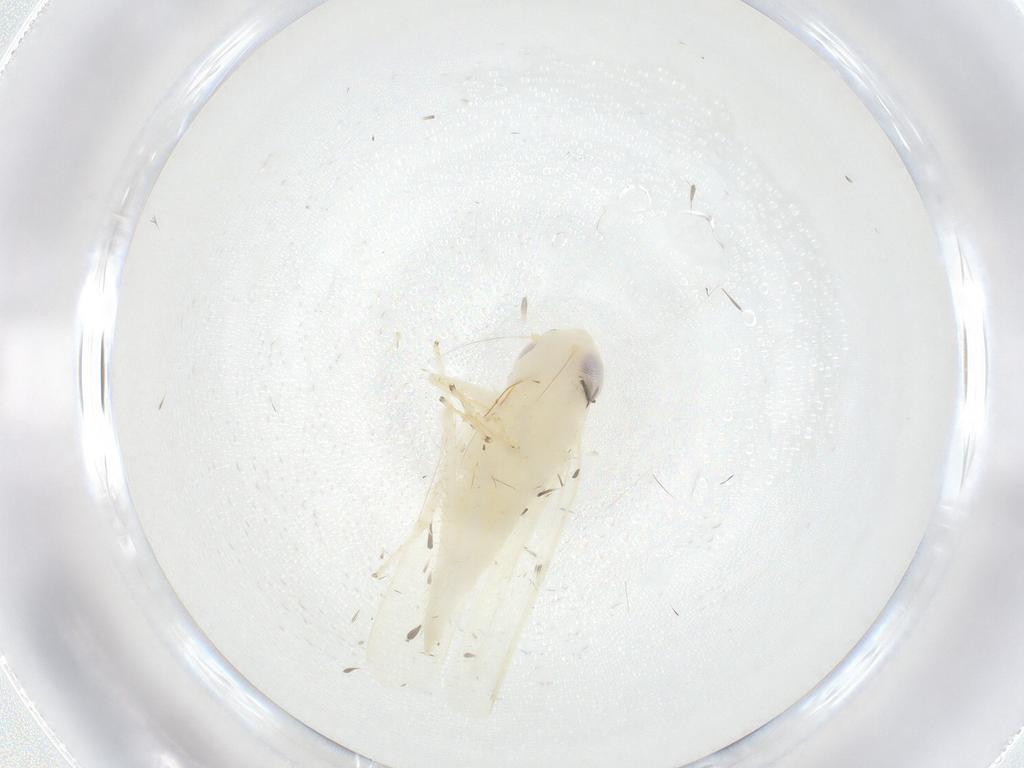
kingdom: Animalia
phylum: Arthropoda
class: Insecta
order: Hemiptera
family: Cicadellidae
